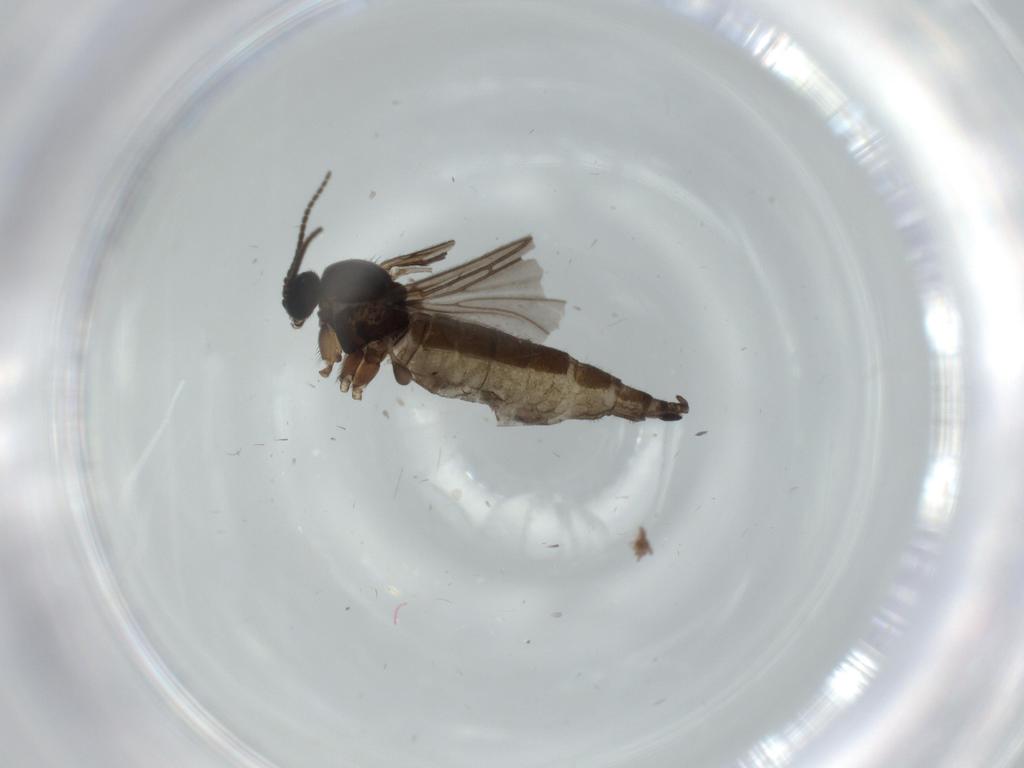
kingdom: Animalia
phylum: Arthropoda
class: Insecta
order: Diptera
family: Sciaridae
